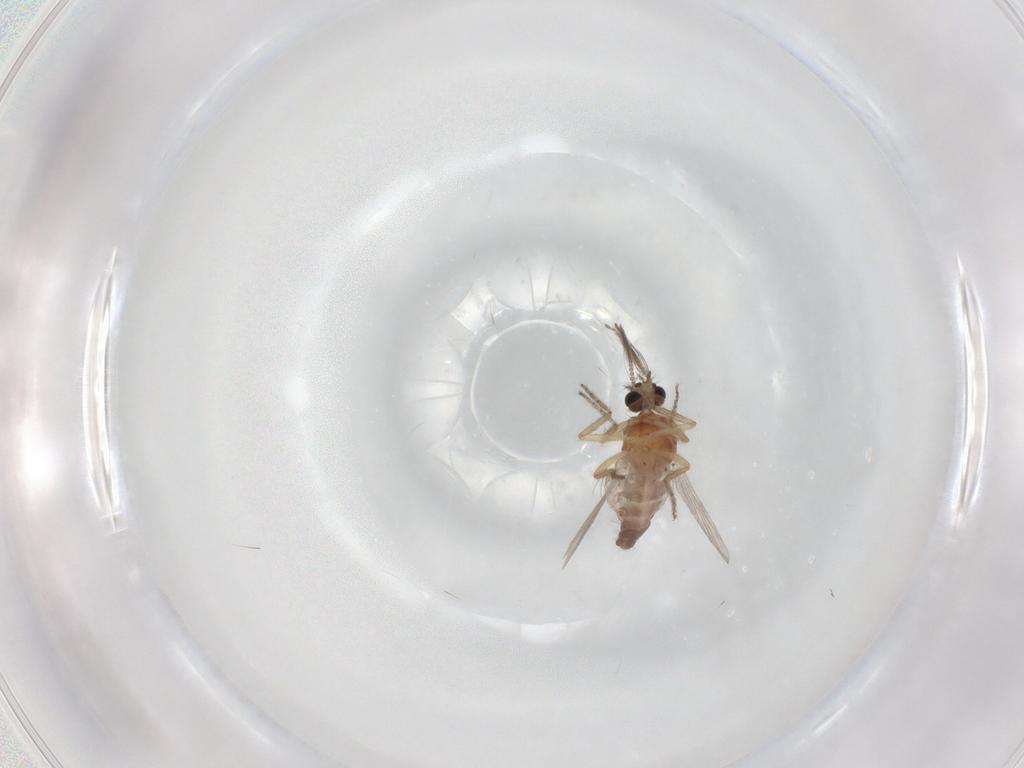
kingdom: Animalia
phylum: Arthropoda
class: Insecta
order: Diptera
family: Ceratopogonidae
